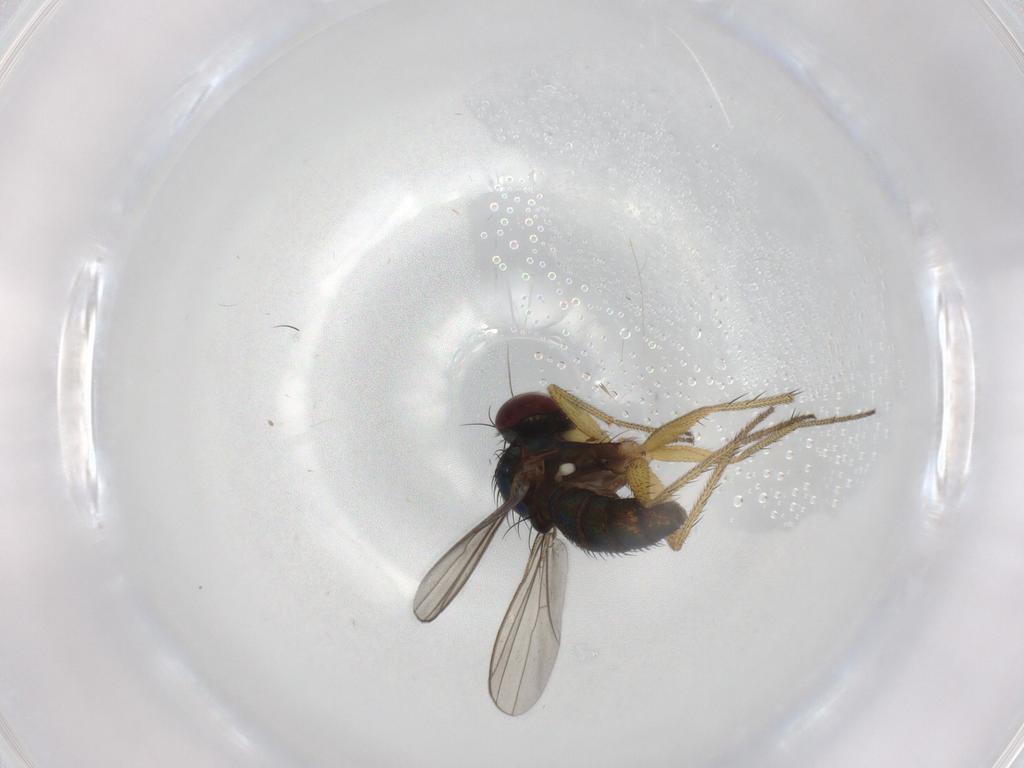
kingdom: Animalia
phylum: Arthropoda
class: Insecta
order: Diptera
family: Dolichopodidae
